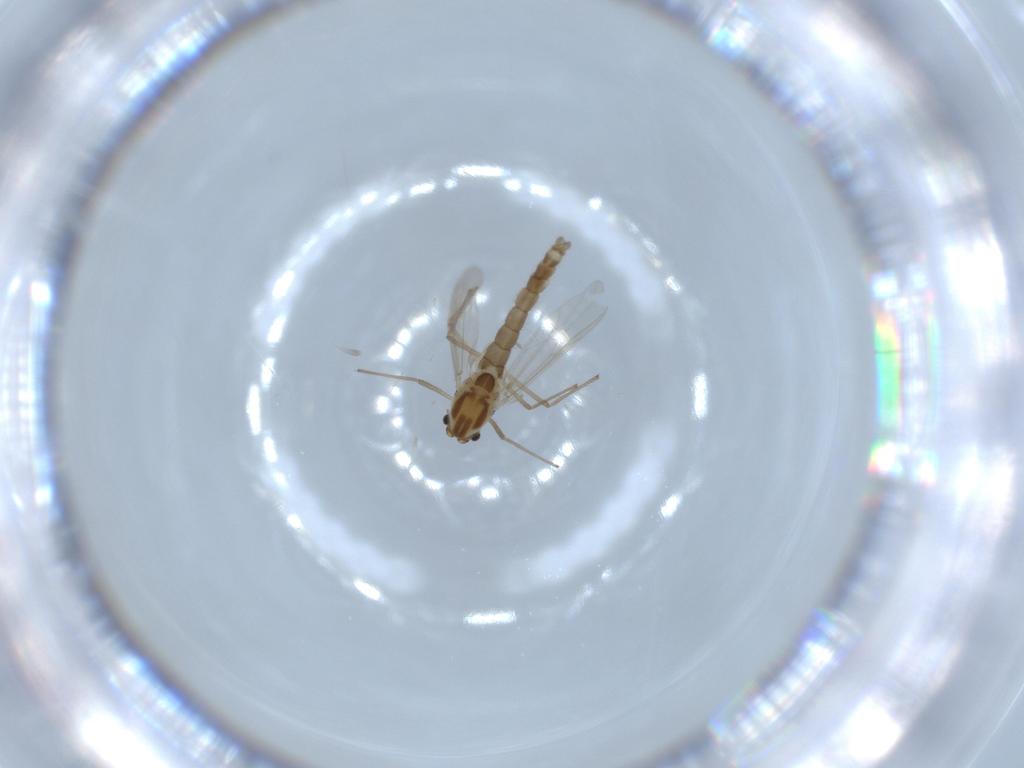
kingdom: Animalia
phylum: Arthropoda
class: Insecta
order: Diptera
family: Chironomidae
